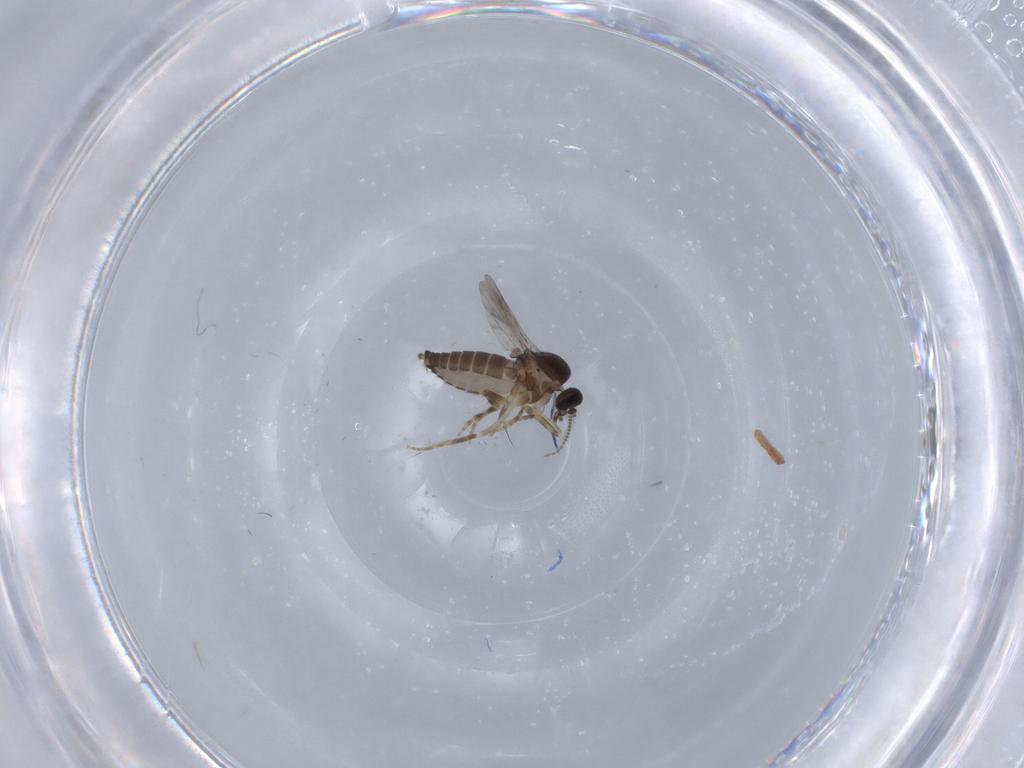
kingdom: Animalia
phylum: Arthropoda
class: Insecta
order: Diptera
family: Ceratopogonidae
